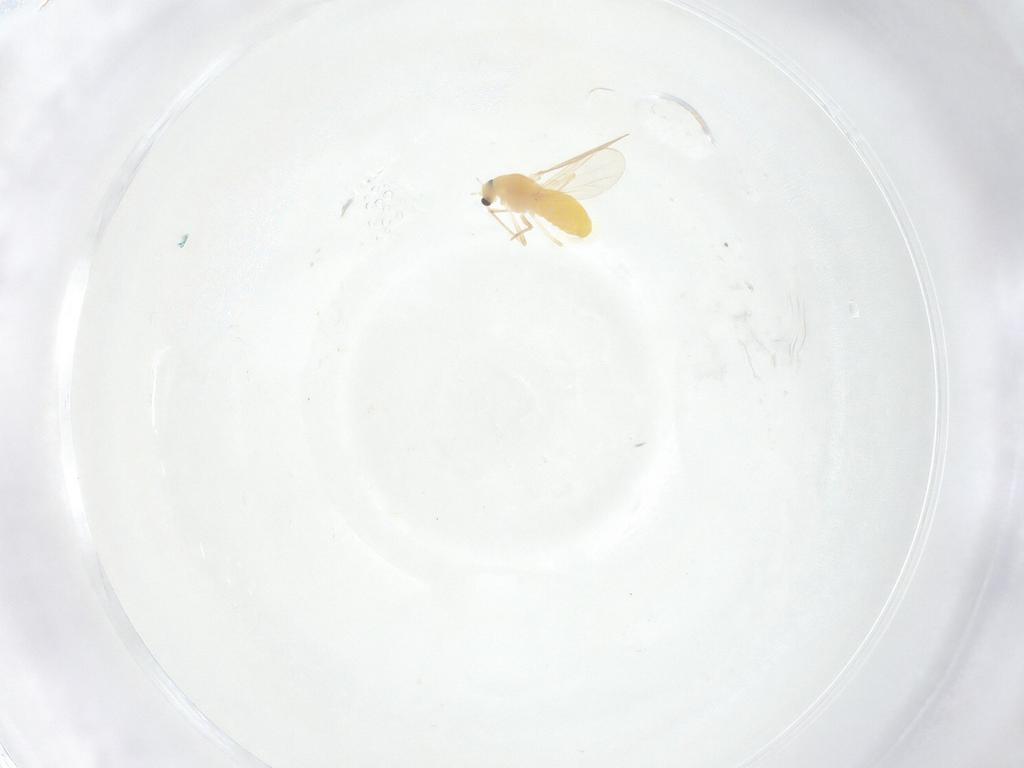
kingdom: Animalia
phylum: Arthropoda
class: Insecta
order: Diptera
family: Chironomidae
